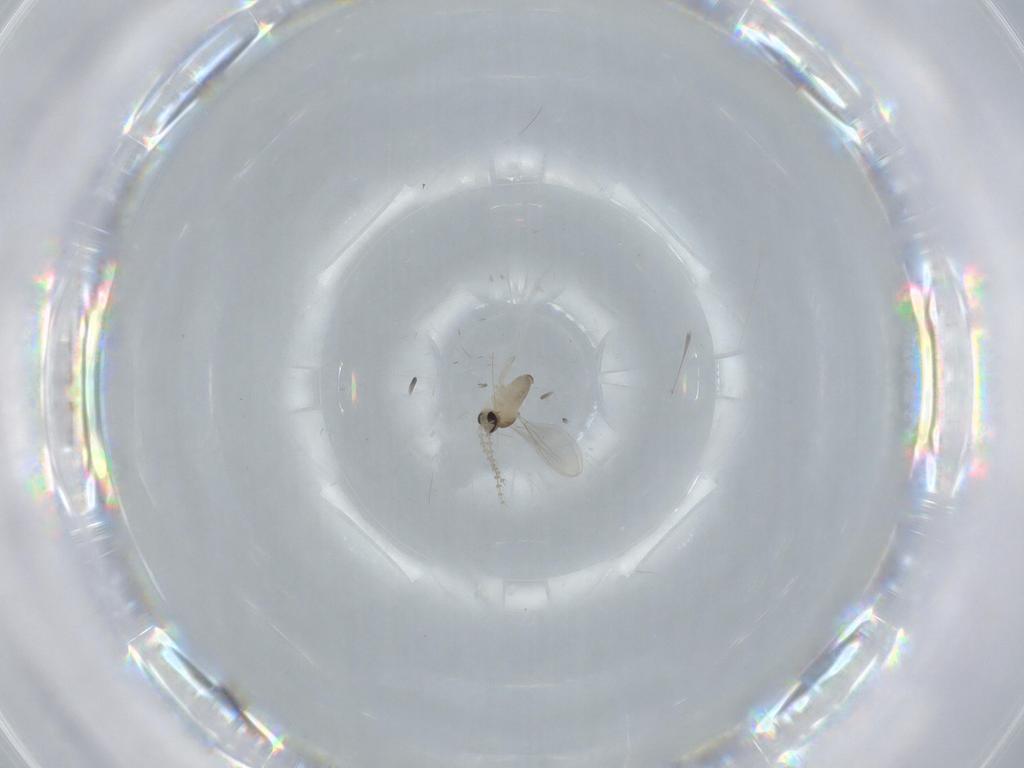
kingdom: Animalia
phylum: Arthropoda
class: Insecta
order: Diptera
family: Cecidomyiidae
